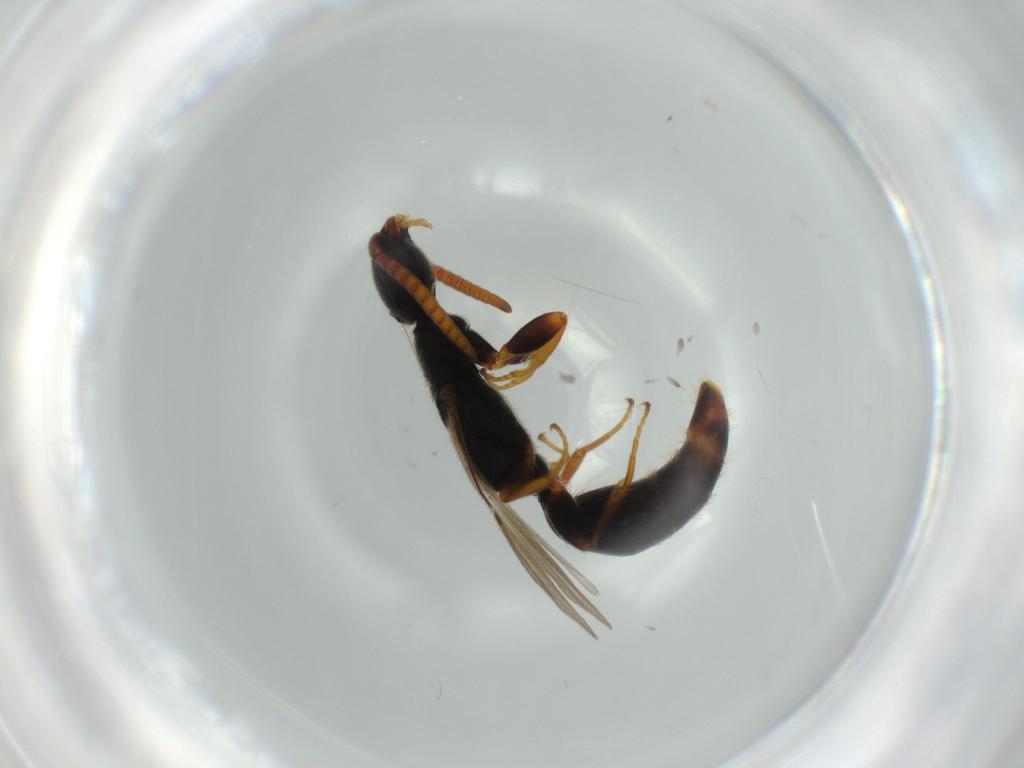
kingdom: Animalia
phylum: Arthropoda
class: Insecta
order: Hymenoptera
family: Bethylidae
